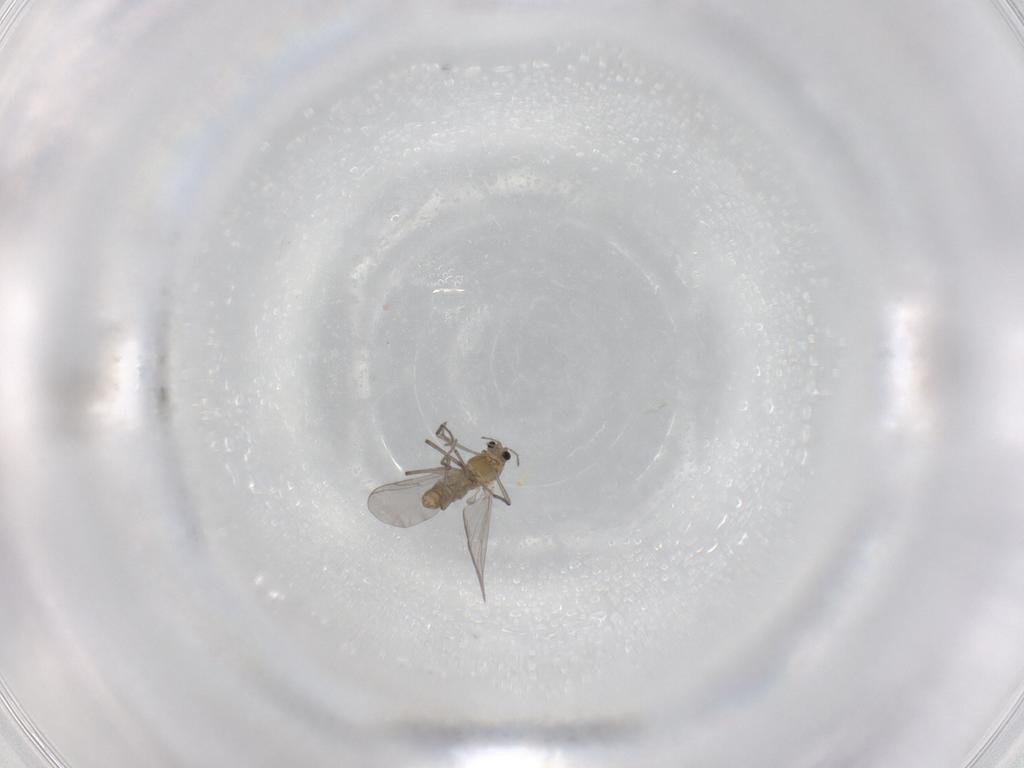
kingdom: Animalia
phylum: Arthropoda
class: Insecta
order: Diptera
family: Chironomidae
